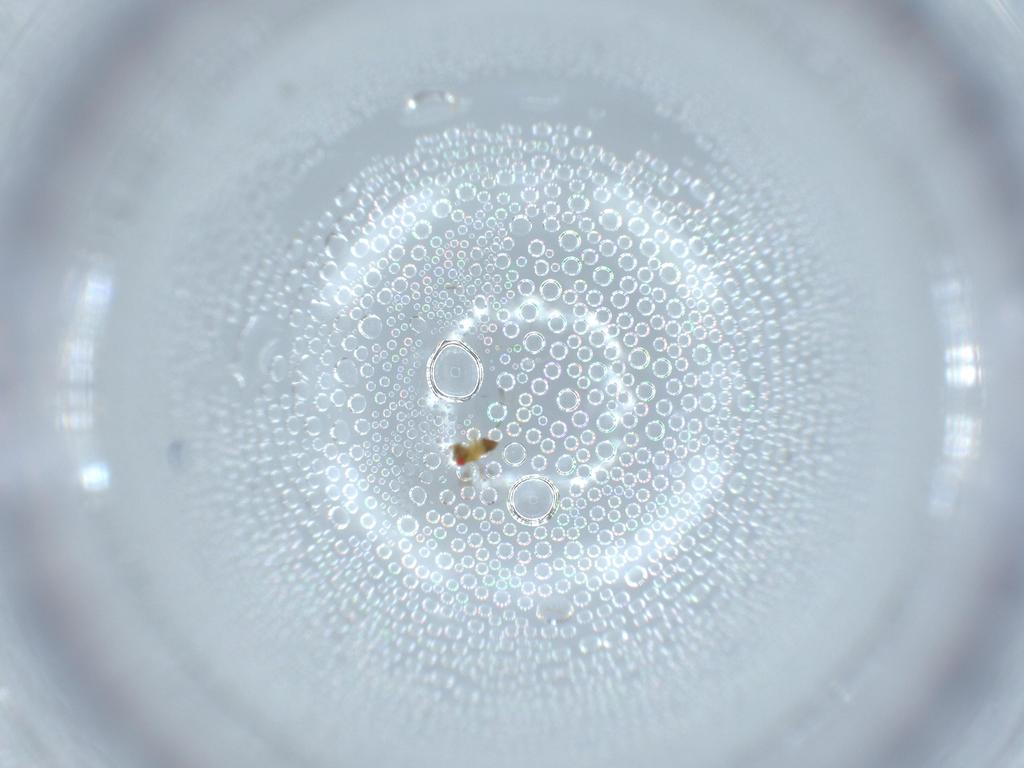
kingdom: Animalia
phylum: Arthropoda
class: Insecta
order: Hymenoptera
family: Trichogrammatidae
